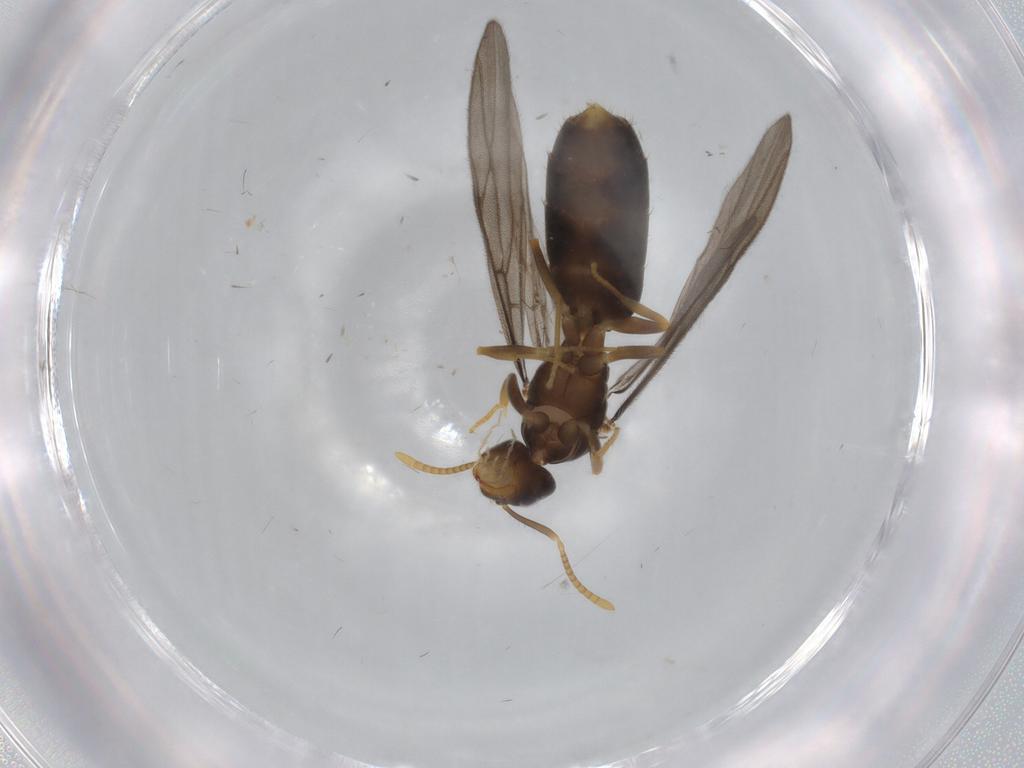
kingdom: Animalia
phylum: Arthropoda
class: Insecta
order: Hymenoptera
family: Formicidae
